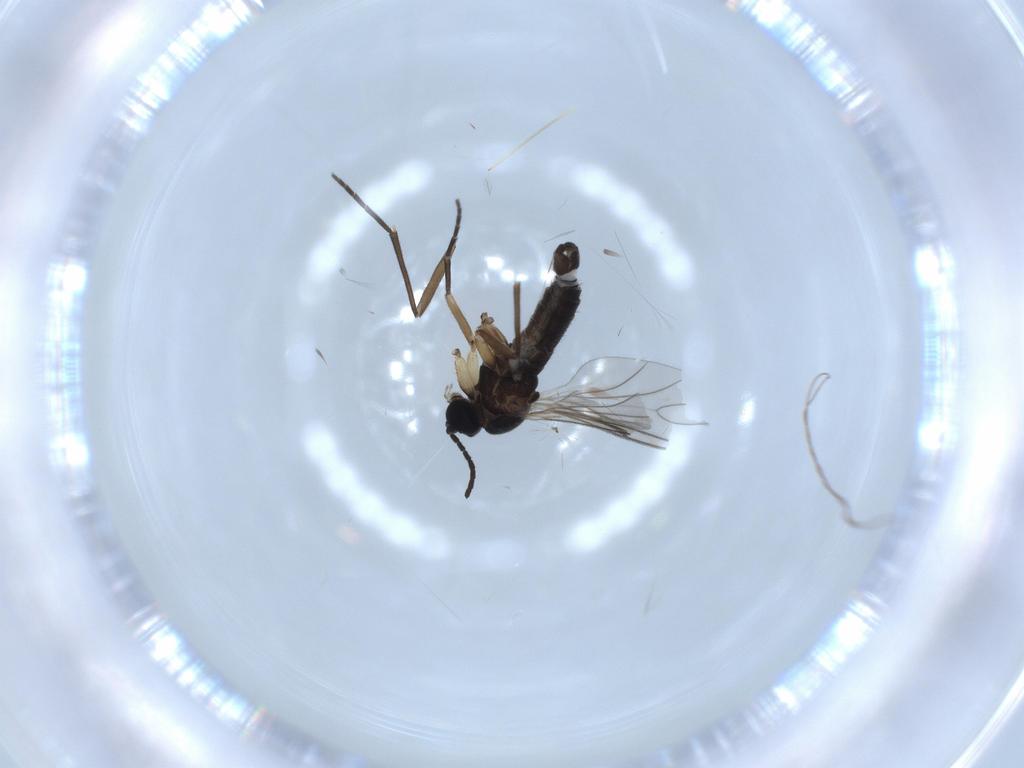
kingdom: Animalia
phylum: Arthropoda
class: Insecta
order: Diptera
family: Sciaridae
